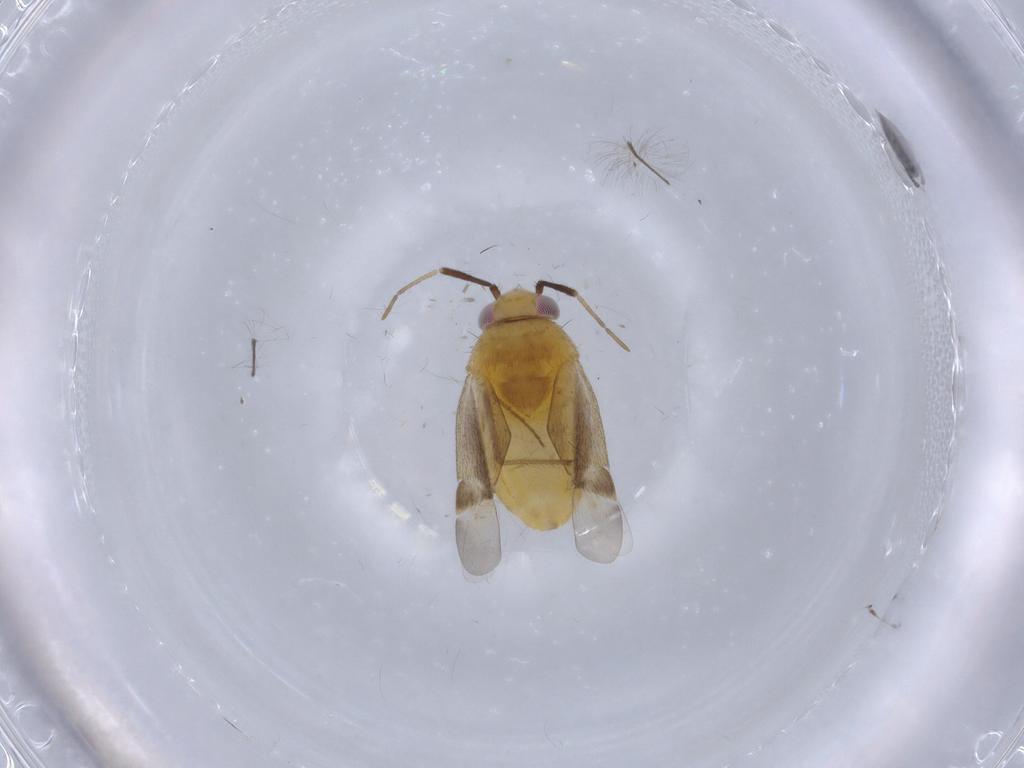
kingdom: Animalia
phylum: Arthropoda
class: Insecta
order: Hemiptera
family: Miridae
